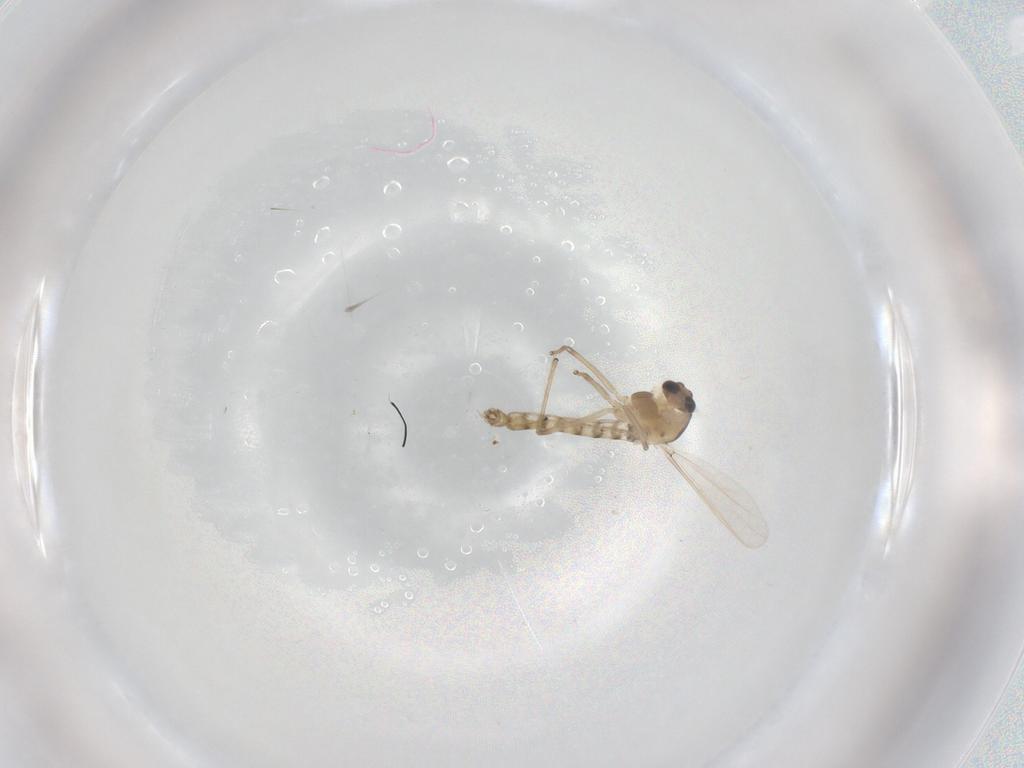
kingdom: Animalia
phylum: Arthropoda
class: Insecta
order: Diptera
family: Chironomidae
